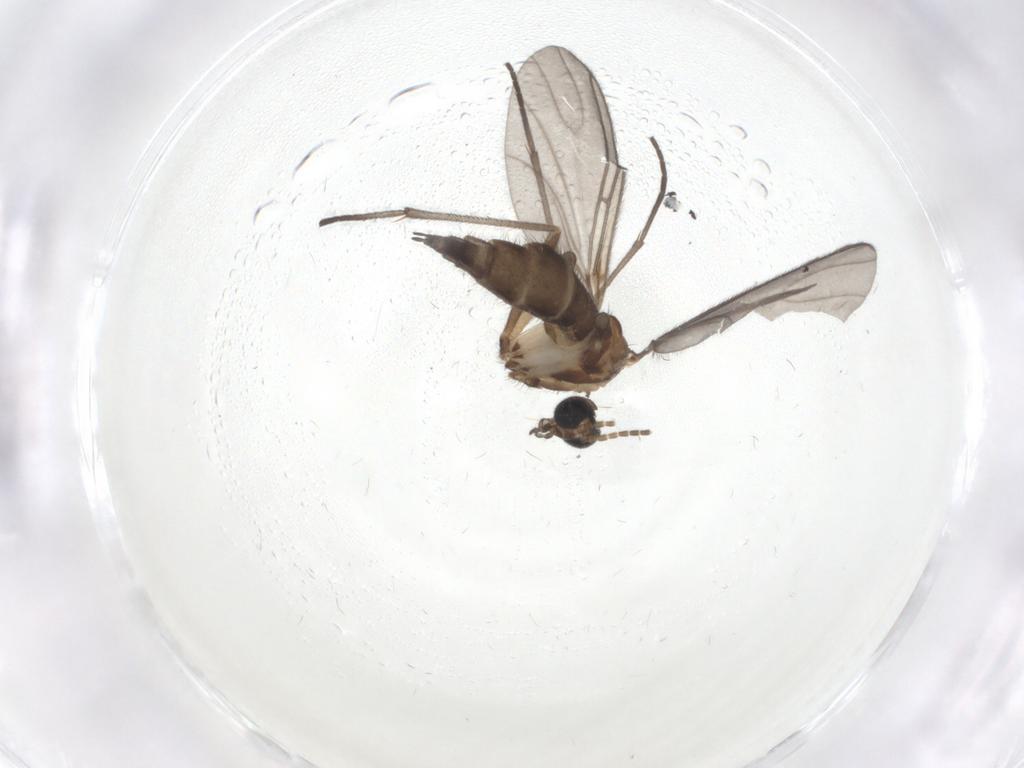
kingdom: Animalia
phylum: Arthropoda
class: Insecta
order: Diptera
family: Sciaridae
